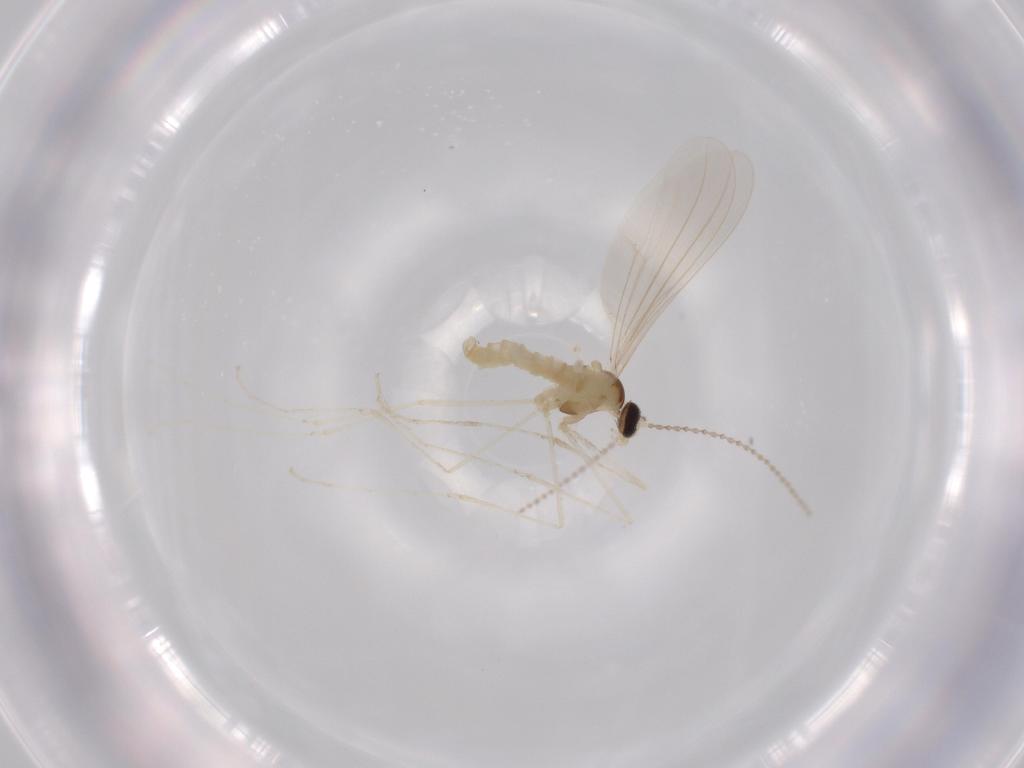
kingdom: Animalia
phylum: Arthropoda
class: Insecta
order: Diptera
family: Cecidomyiidae
